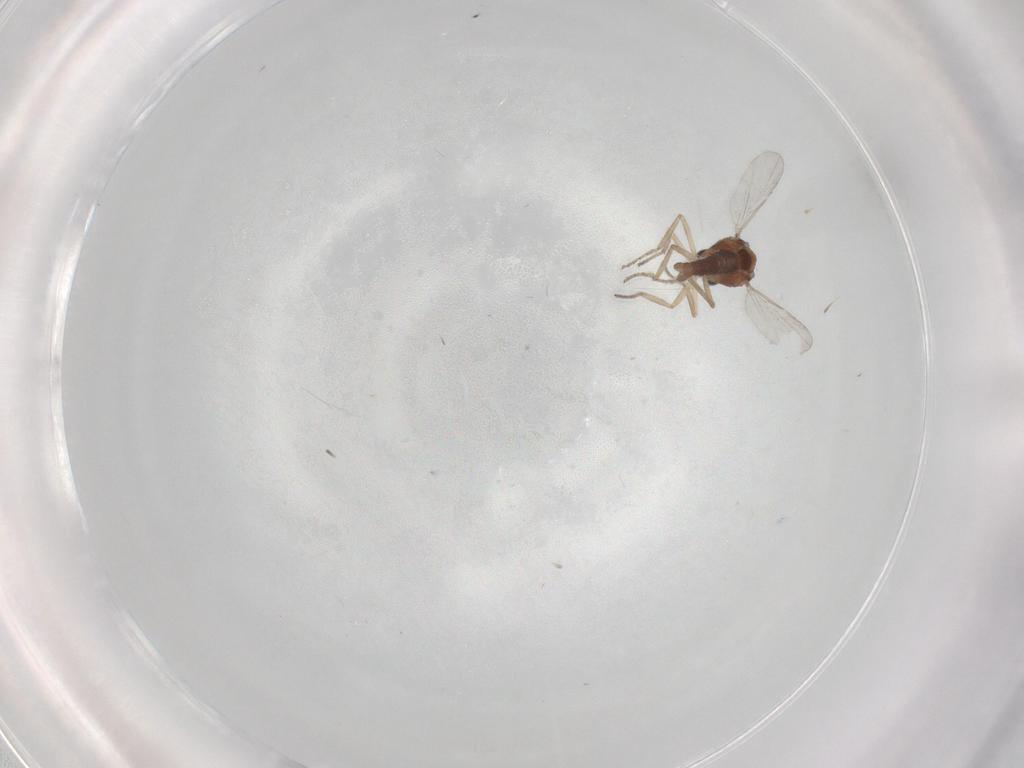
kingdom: Animalia
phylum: Arthropoda
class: Insecta
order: Diptera
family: Ceratopogonidae
